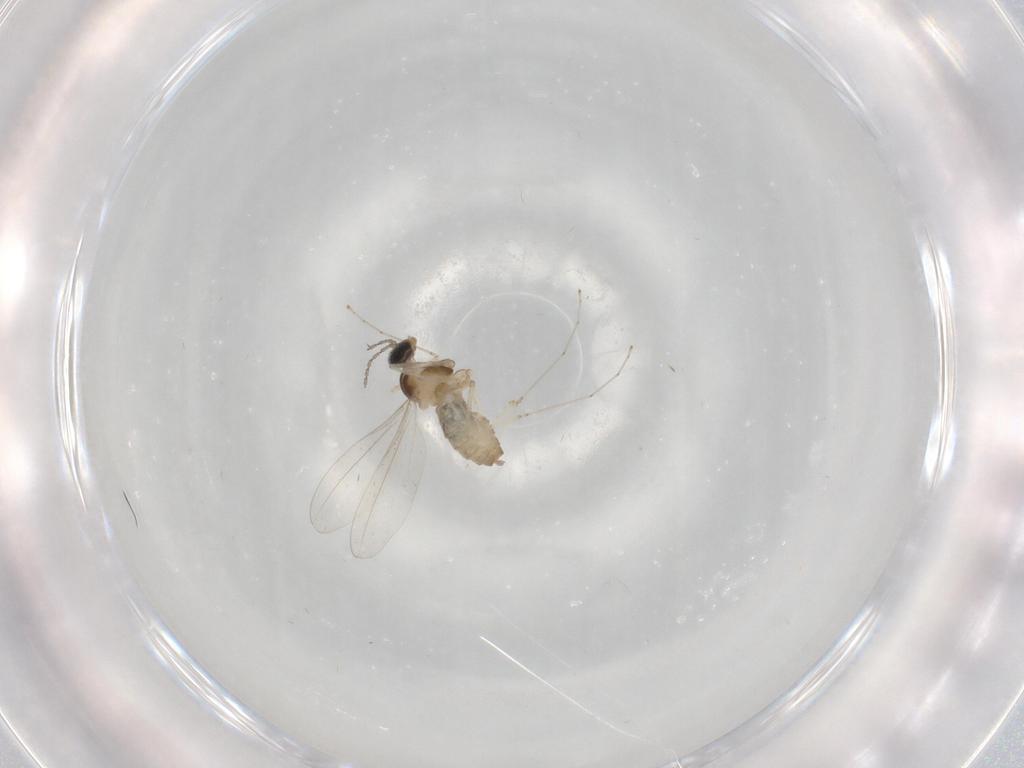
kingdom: Animalia
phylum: Arthropoda
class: Insecta
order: Diptera
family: Cecidomyiidae
